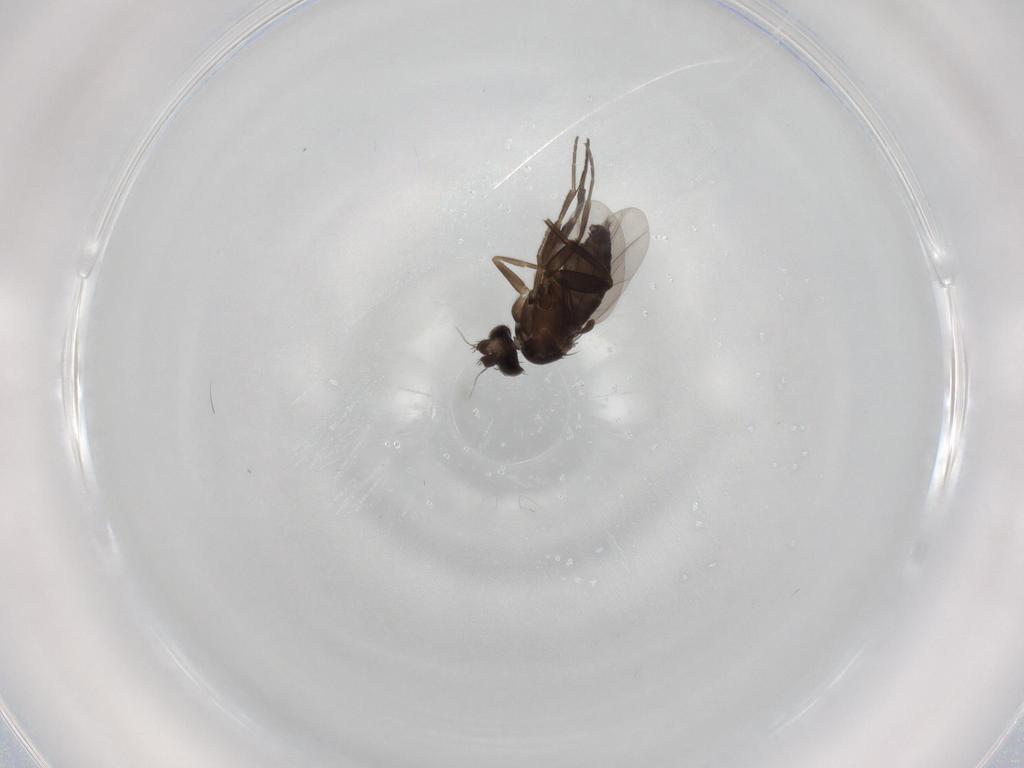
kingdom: Animalia
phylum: Arthropoda
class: Insecta
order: Diptera
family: Phoridae
